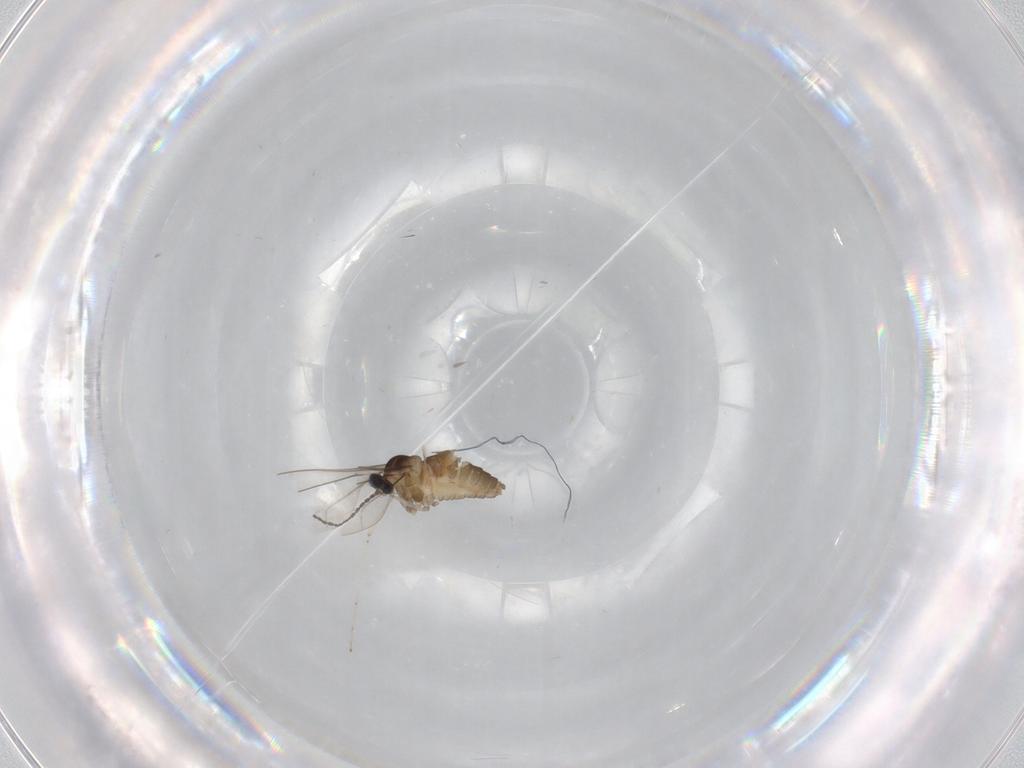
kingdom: Animalia
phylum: Arthropoda
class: Insecta
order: Diptera
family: Cecidomyiidae
